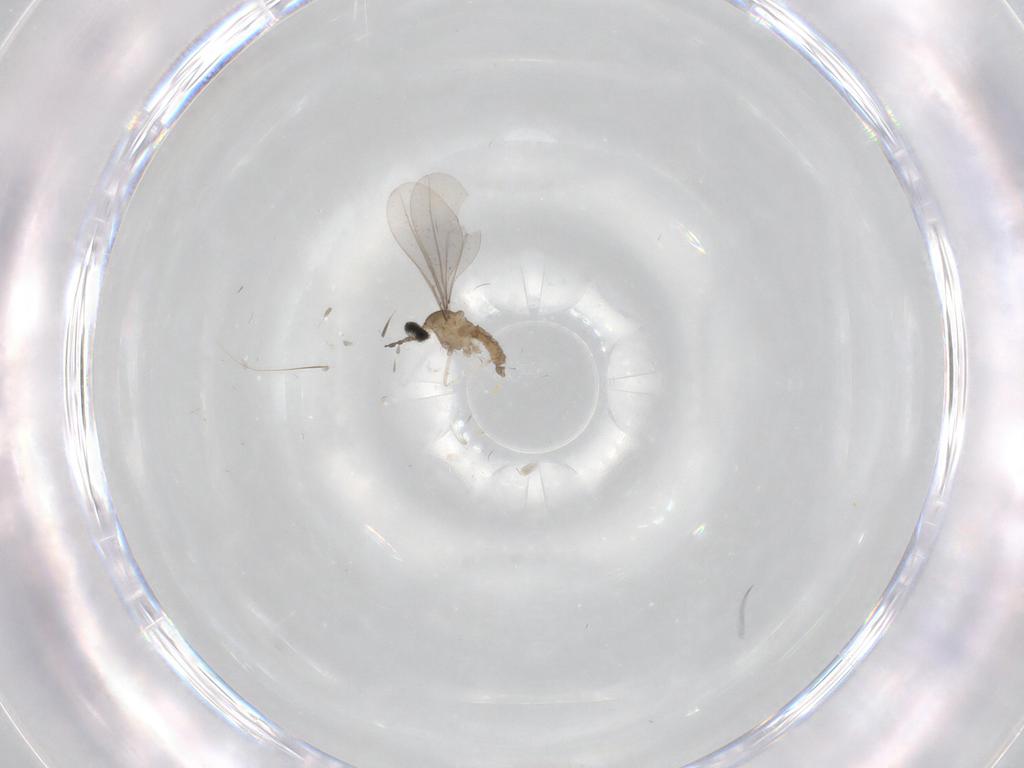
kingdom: Animalia
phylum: Arthropoda
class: Insecta
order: Diptera
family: Cecidomyiidae
